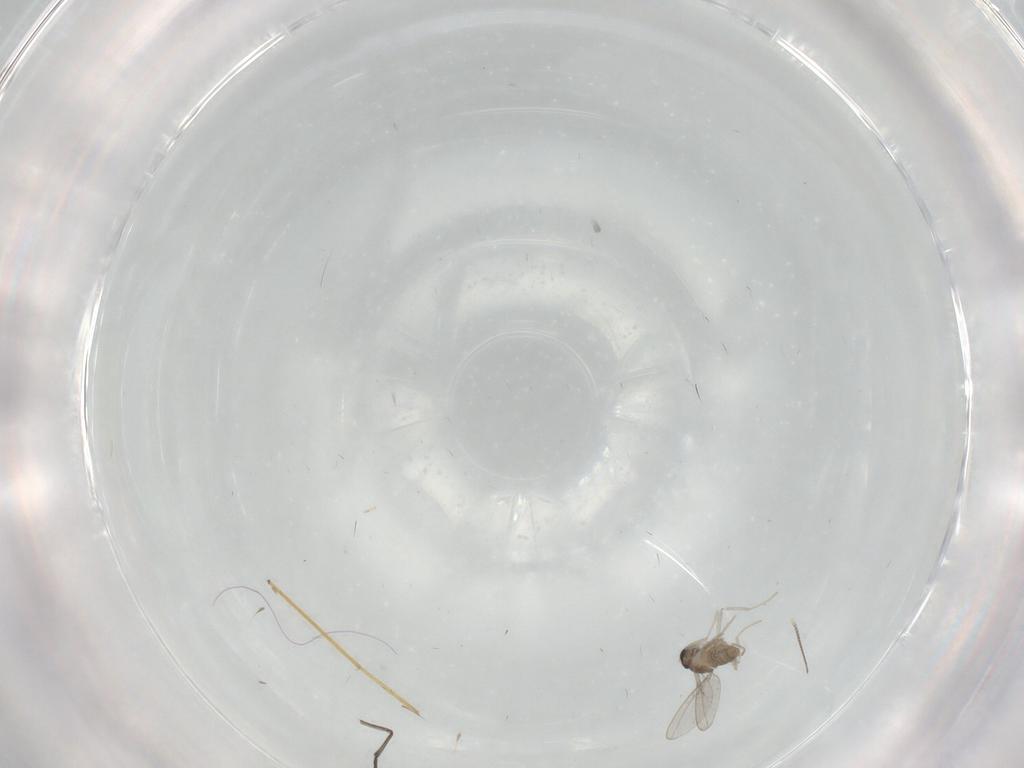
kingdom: Animalia
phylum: Arthropoda
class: Insecta
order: Diptera
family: Chironomidae
